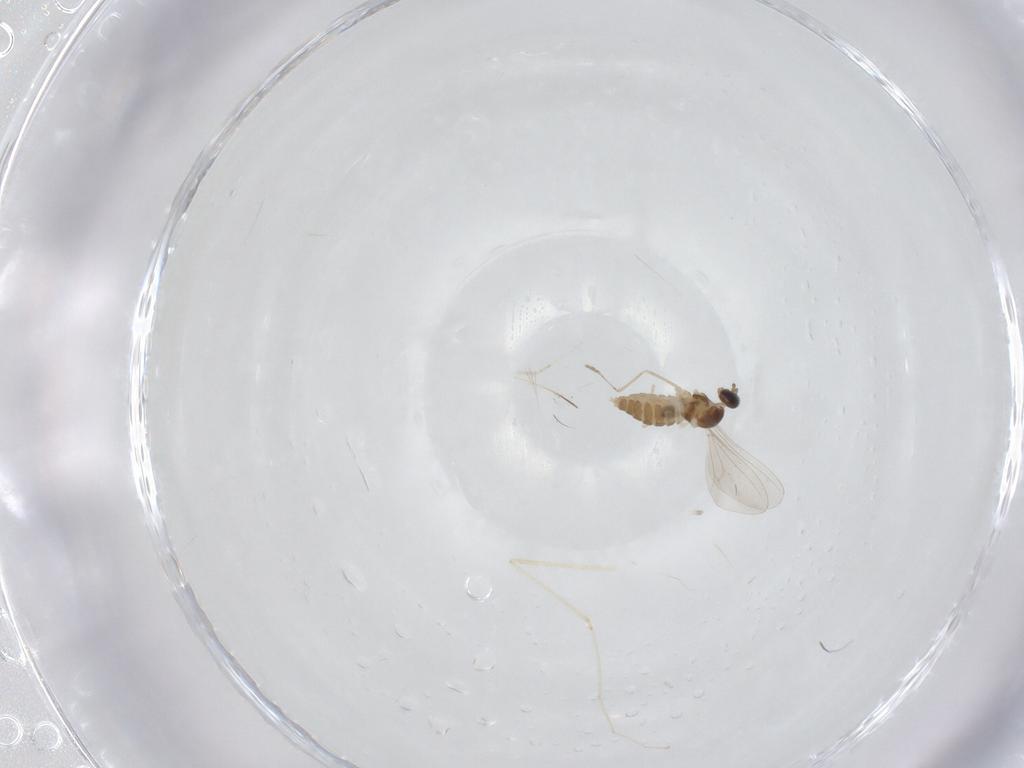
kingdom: Animalia
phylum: Arthropoda
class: Insecta
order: Diptera
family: Cecidomyiidae
